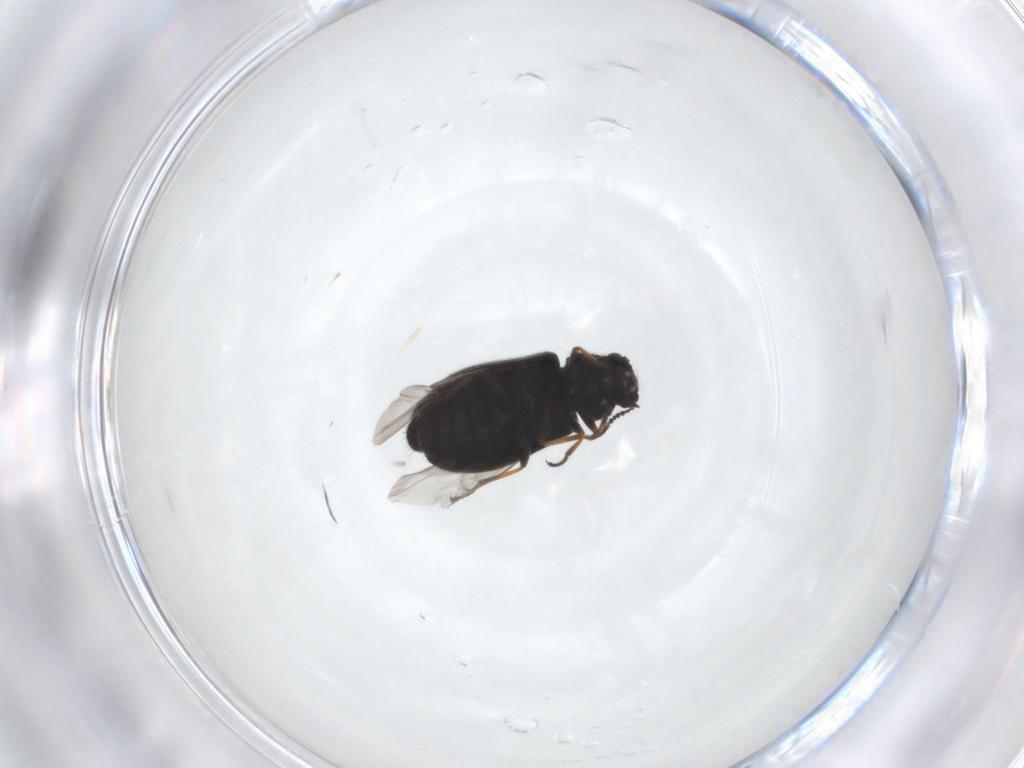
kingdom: Animalia
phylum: Arthropoda
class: Insecta
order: Coleoptera
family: Melyridae
